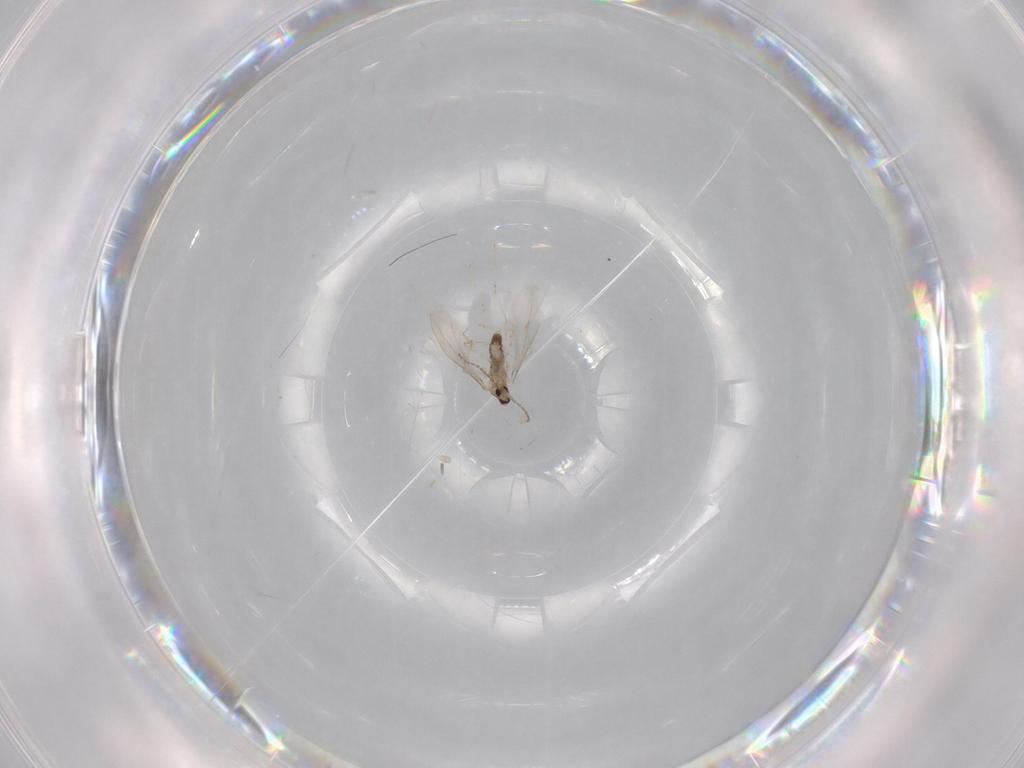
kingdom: Animalia
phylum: Arthropoda
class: Insecta
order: Diptera
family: Cecidomyiidae
